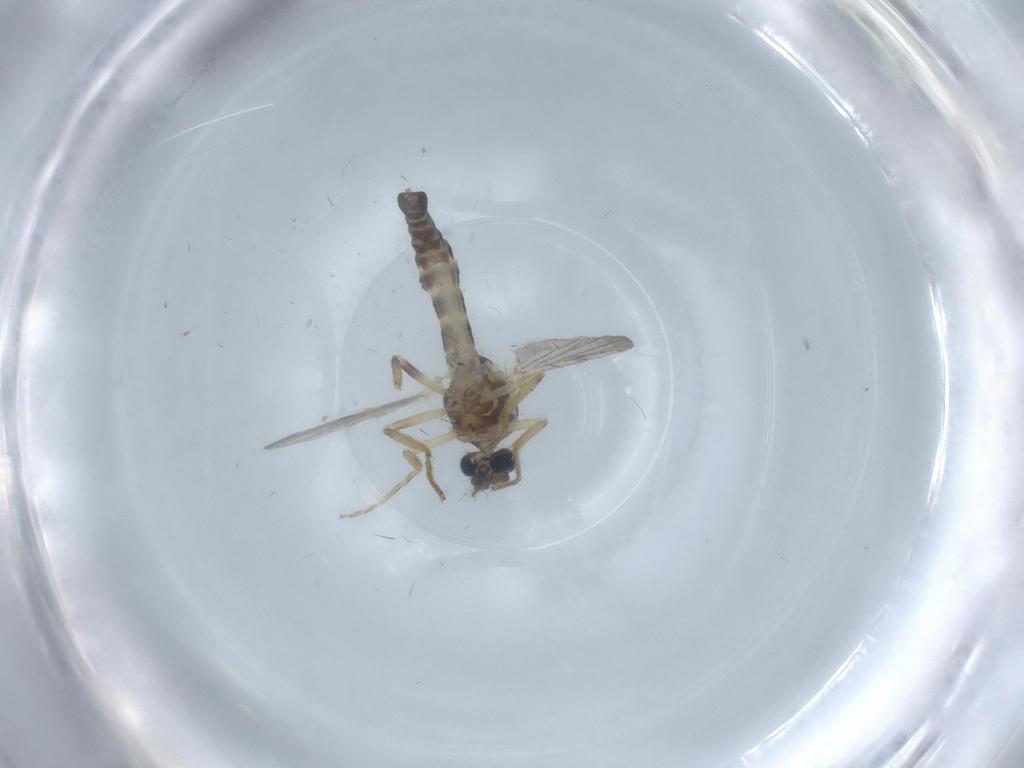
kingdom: Animalia
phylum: Arthropoda
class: Insecta
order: Diptera
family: Ceratopogonidae
